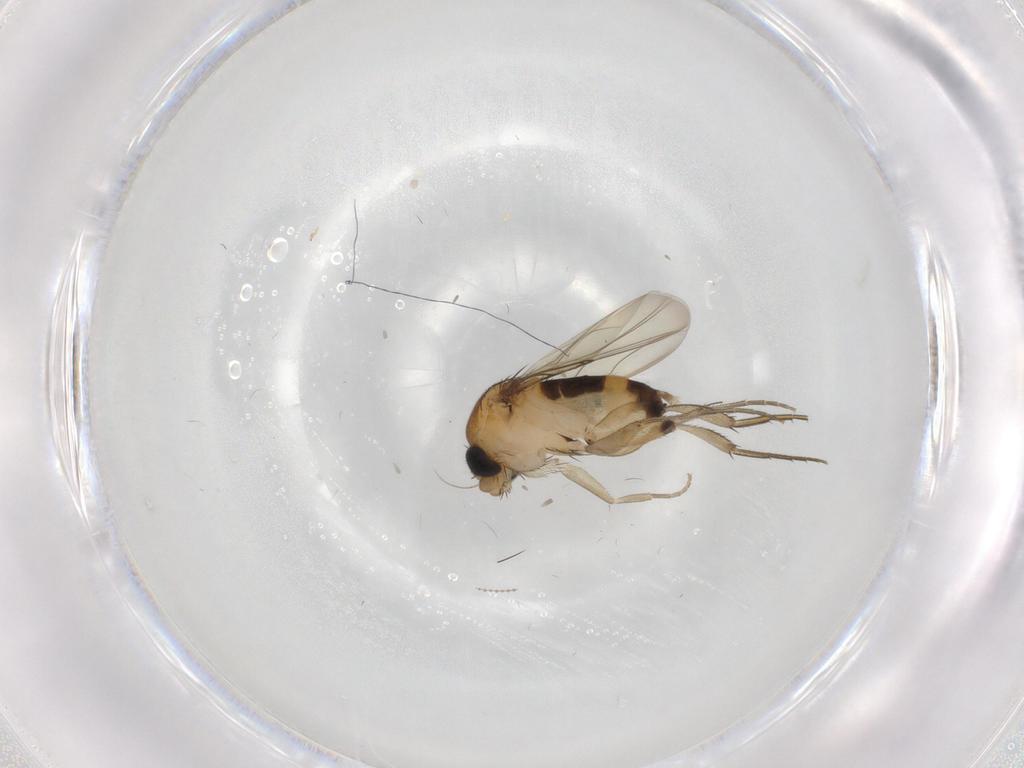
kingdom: Animalia
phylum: Arthropoda
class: Insecta
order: Diptera
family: Phoridae
